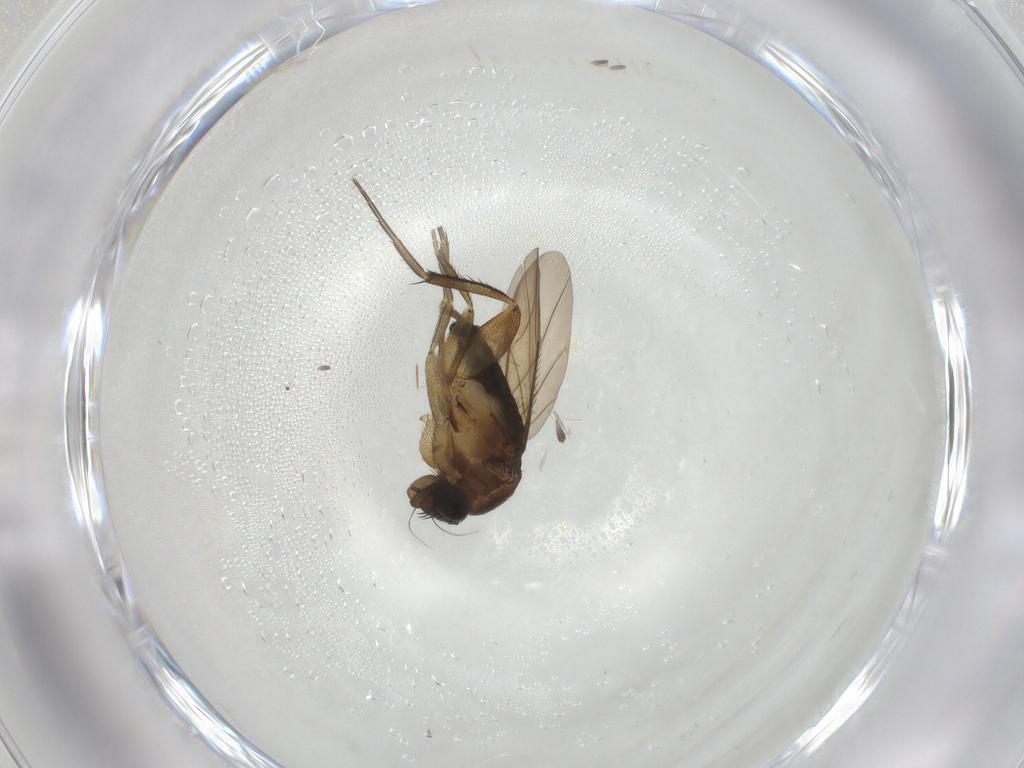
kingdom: Animalia
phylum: Arthropoda
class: Insecta
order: Diptera
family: Phoridae
